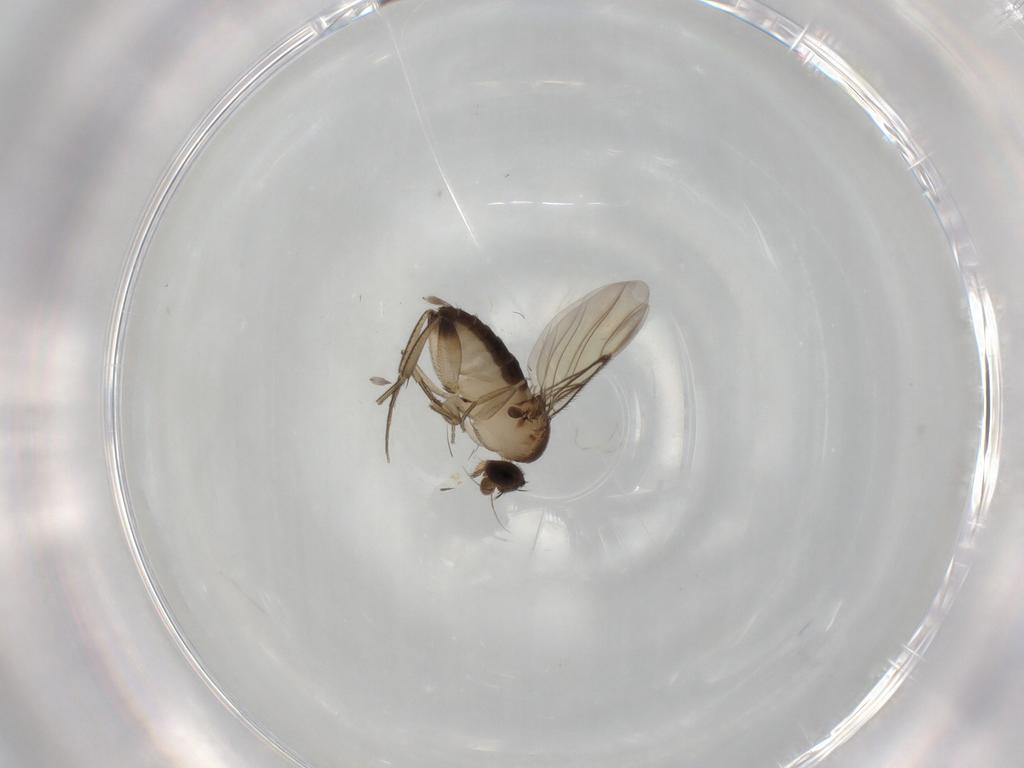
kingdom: Animalia
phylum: Arthropoda
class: Insecta
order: Diptera
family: Phoridae
